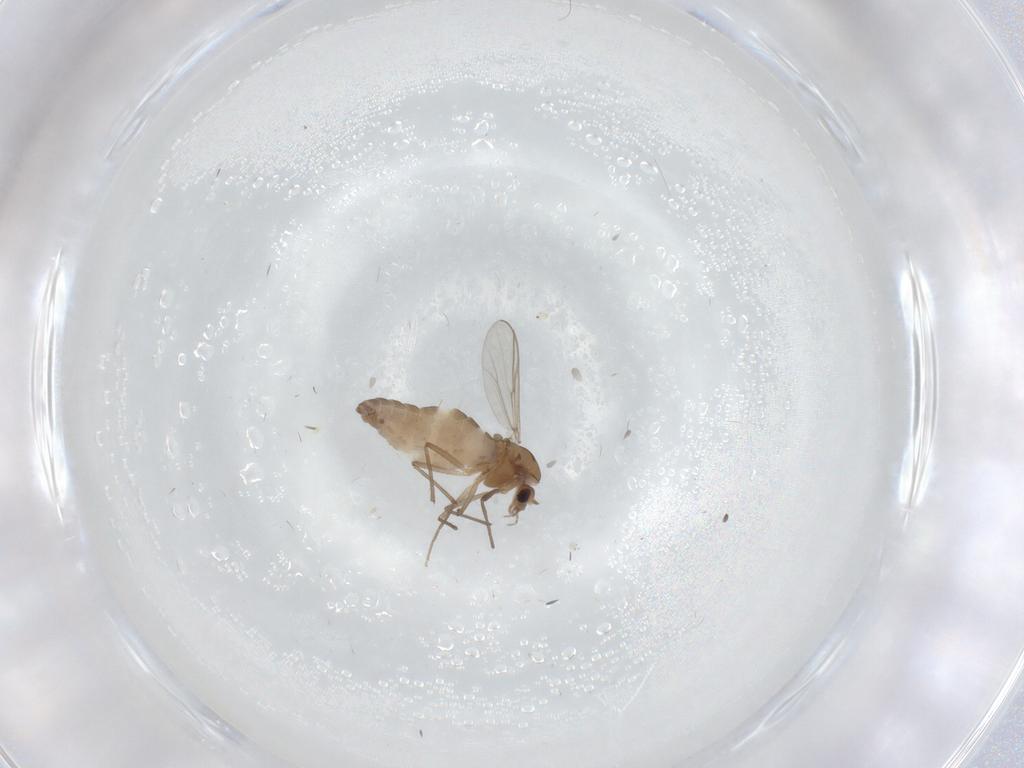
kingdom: Animalia
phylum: Arthropoda
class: Insecta
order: Diptera
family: Chironomidae
